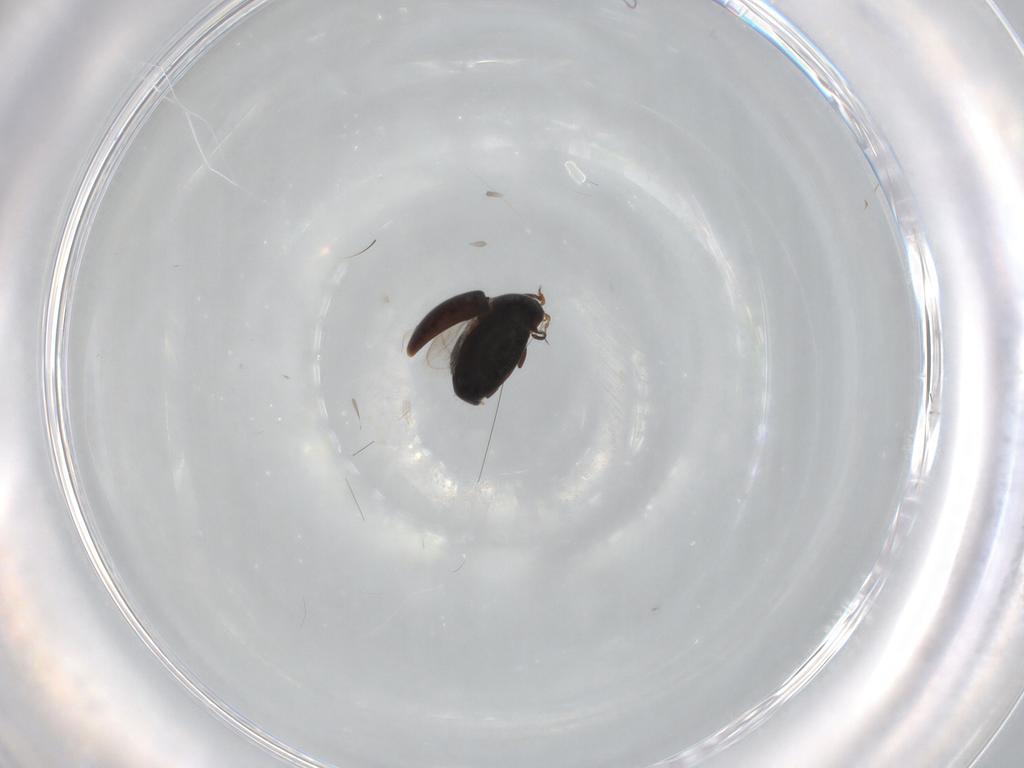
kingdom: Animalia
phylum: Arthropoda
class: Insecta
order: Coleoptera
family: Corylophidae
